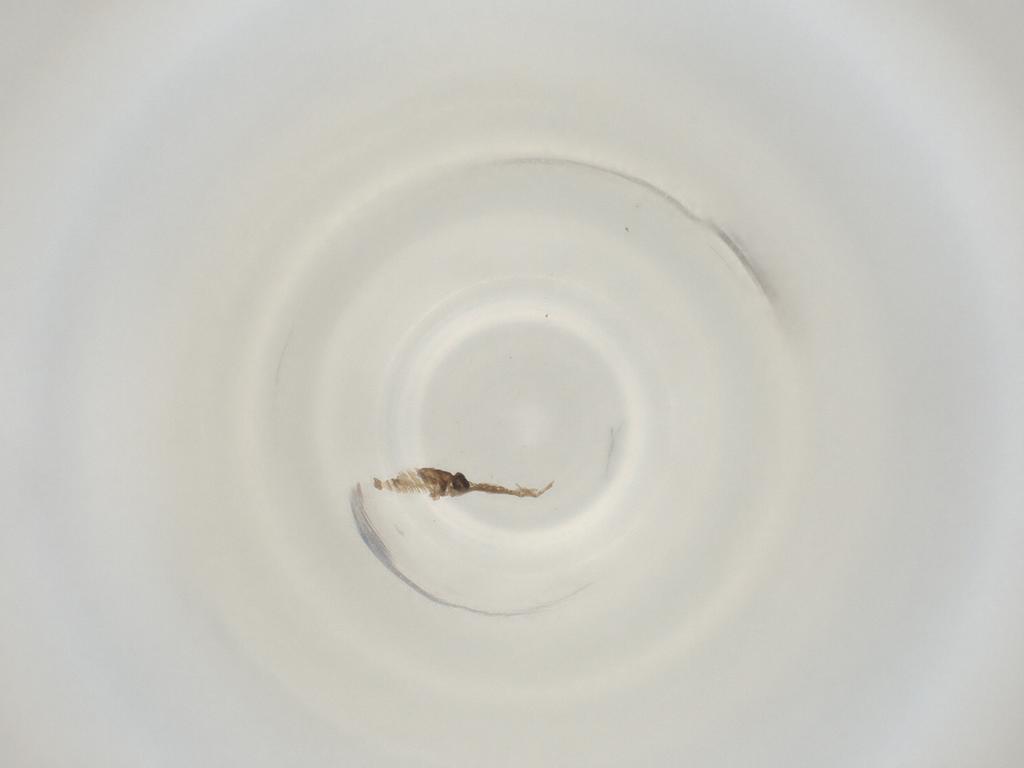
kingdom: Animalia
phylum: Arthropoda
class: Insecta
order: Diptera
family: Cecidomyiidae
